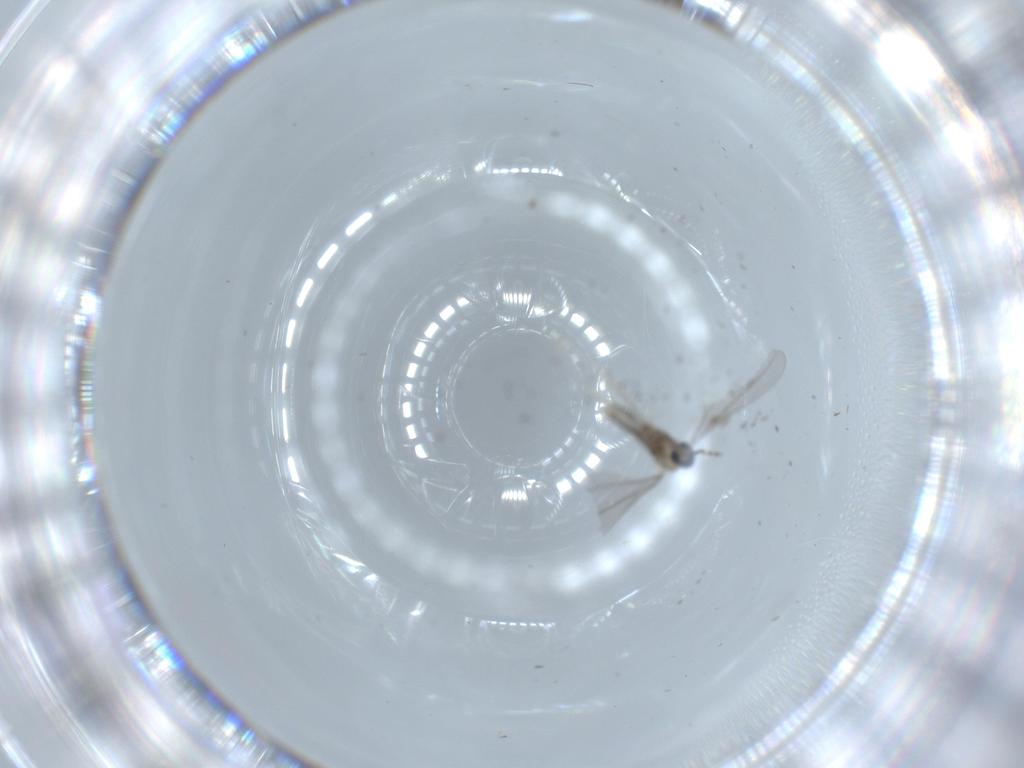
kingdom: Animalia
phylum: Arthropoda
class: Insecta
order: Diptera
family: Cecidomyiidae
